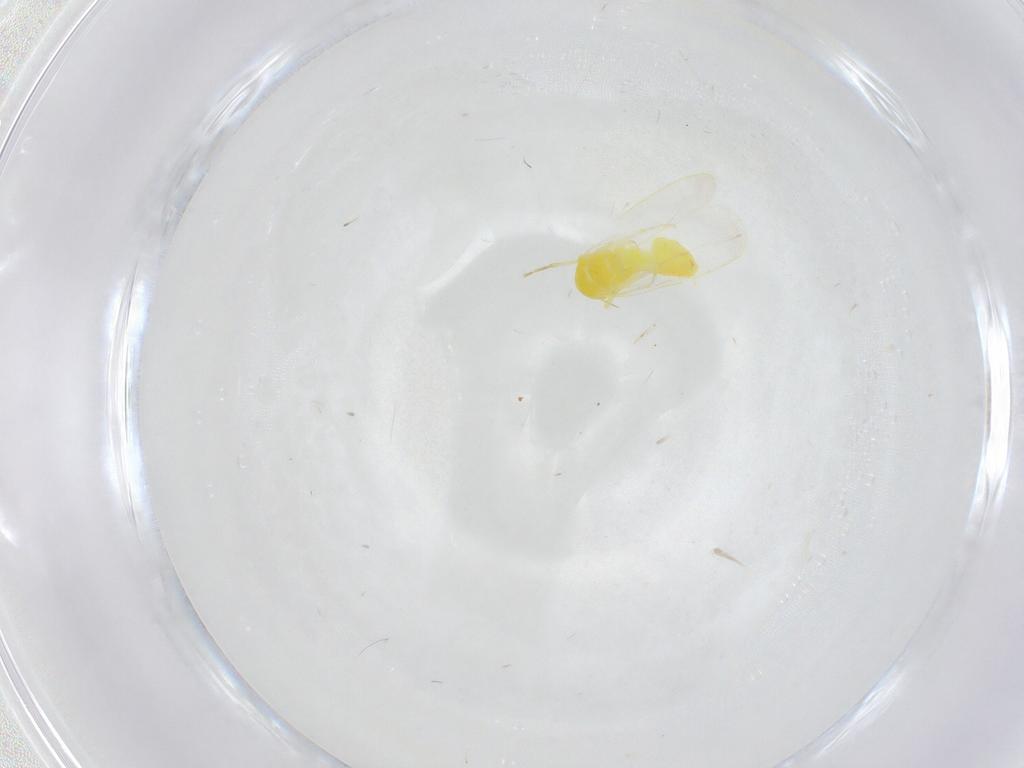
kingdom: Animalia
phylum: Arthropoda
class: Insecta
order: Hemiptera
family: Aleyrodidae
